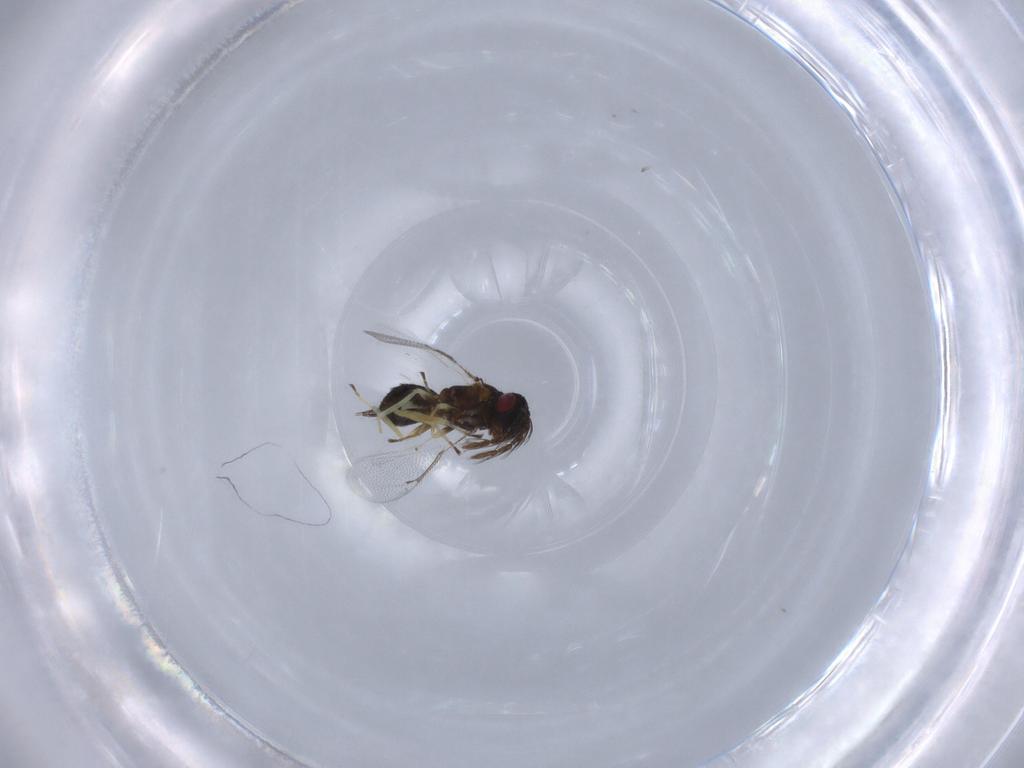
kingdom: Animalia
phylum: Arthropoda
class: Insecta
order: Hymenoptera
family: Eulophidae
